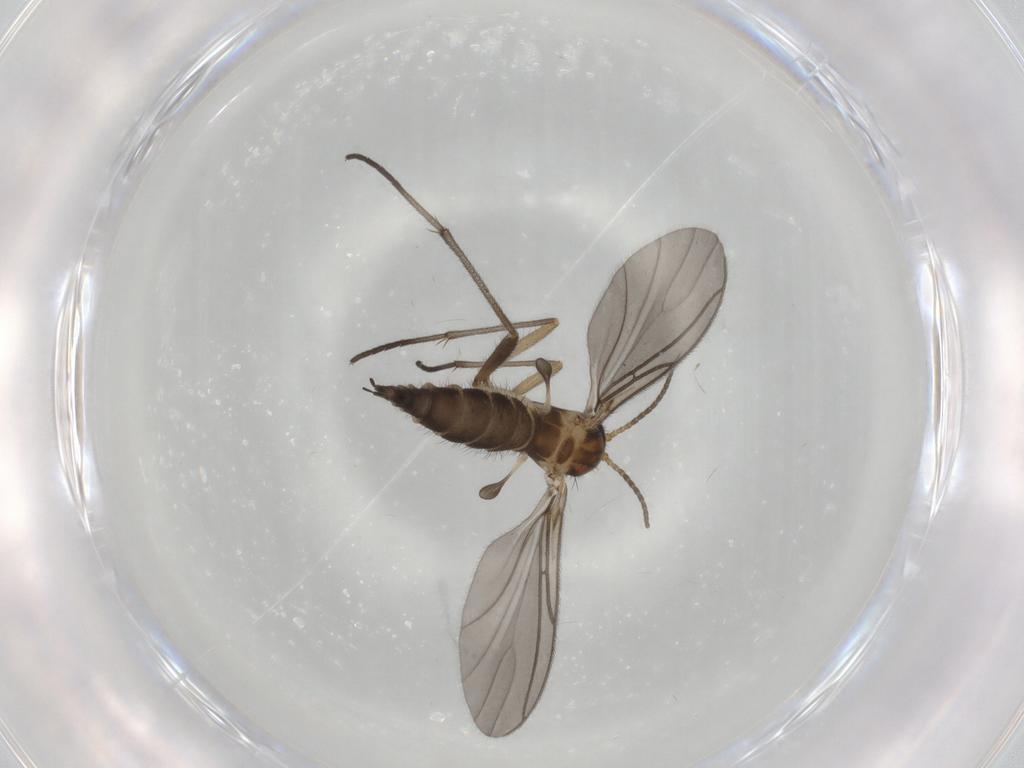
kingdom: Animalia
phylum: Arthropoda
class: Insecta
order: Diptera
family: Sciaridae
